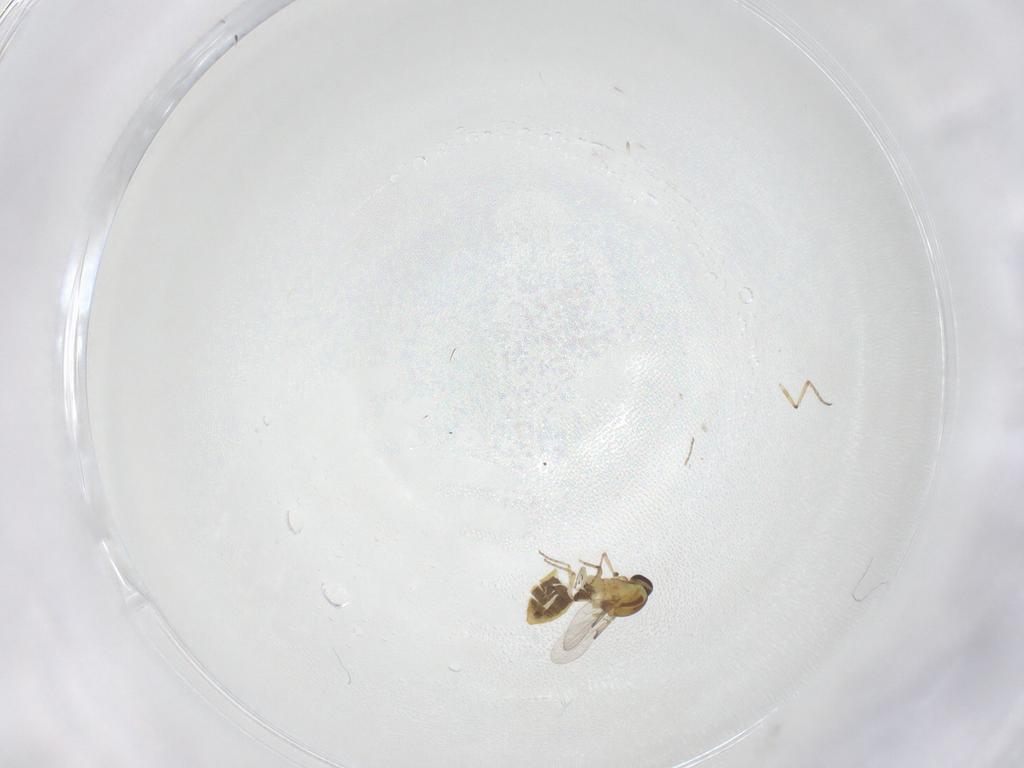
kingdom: Animalia
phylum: Arthropoda
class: Insecta
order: Diptera
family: Ceratopogonidae
